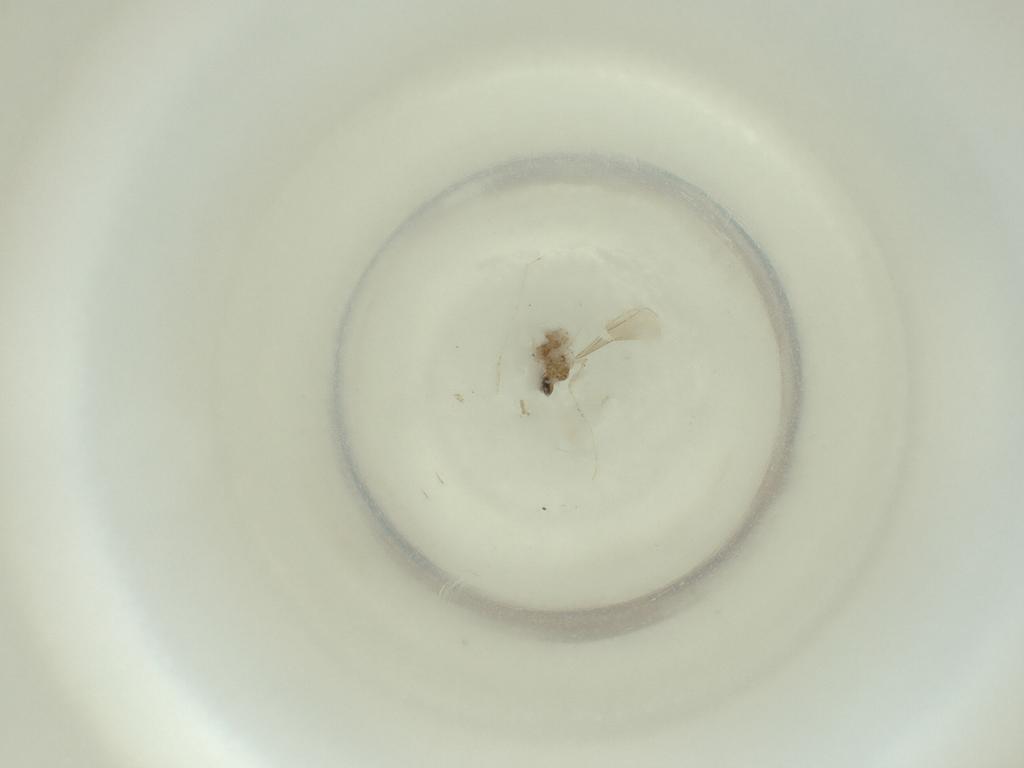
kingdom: Animalia
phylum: Arthropoda
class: Insecta
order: Diptera
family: Cecidomyiidae
